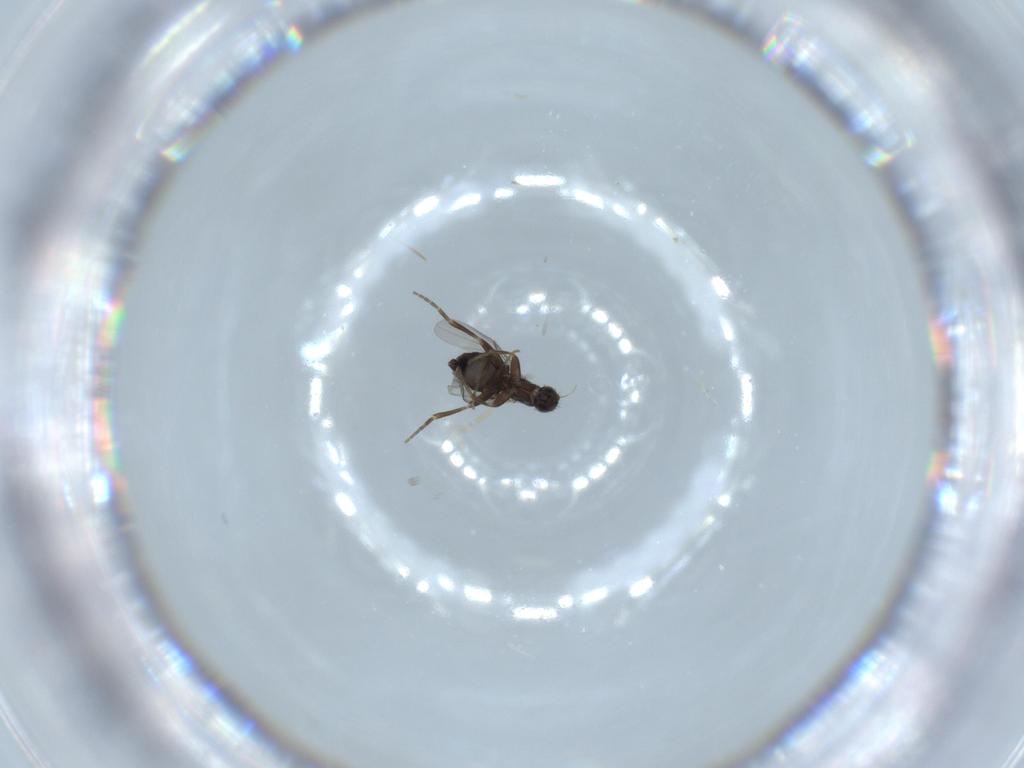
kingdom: Animalia
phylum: Arthropoda
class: Insecta
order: Diptera
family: Phoridae
